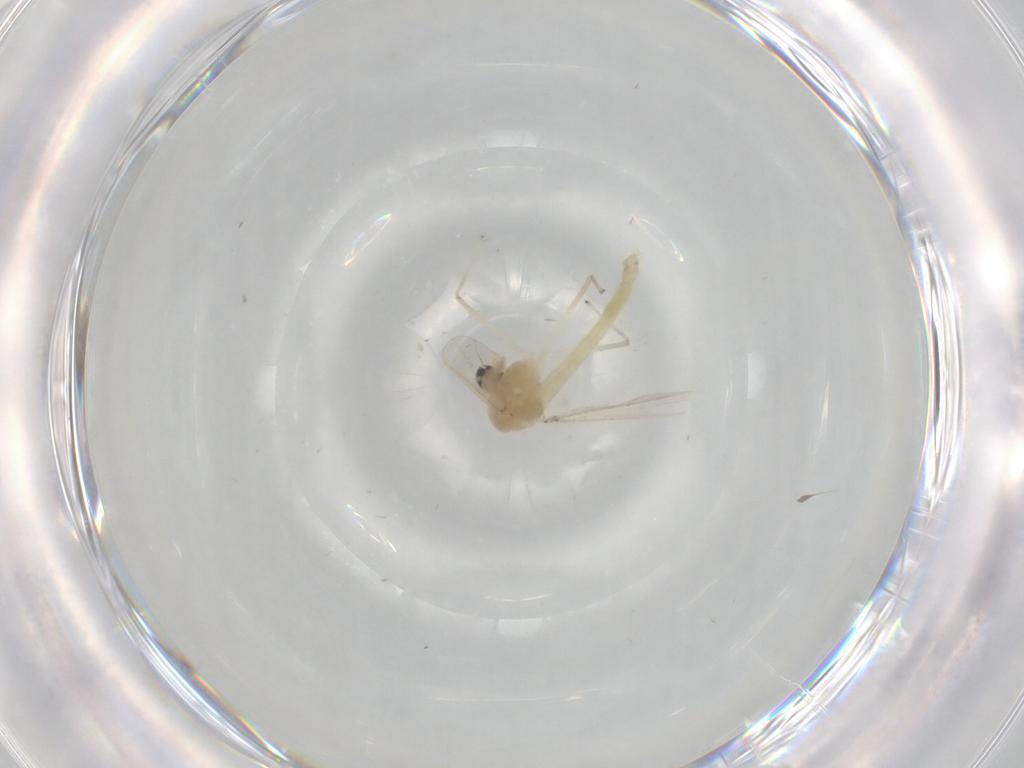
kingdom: Animalia
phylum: Arthropoda
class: Insecta
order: Diptera
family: Chironomidae
